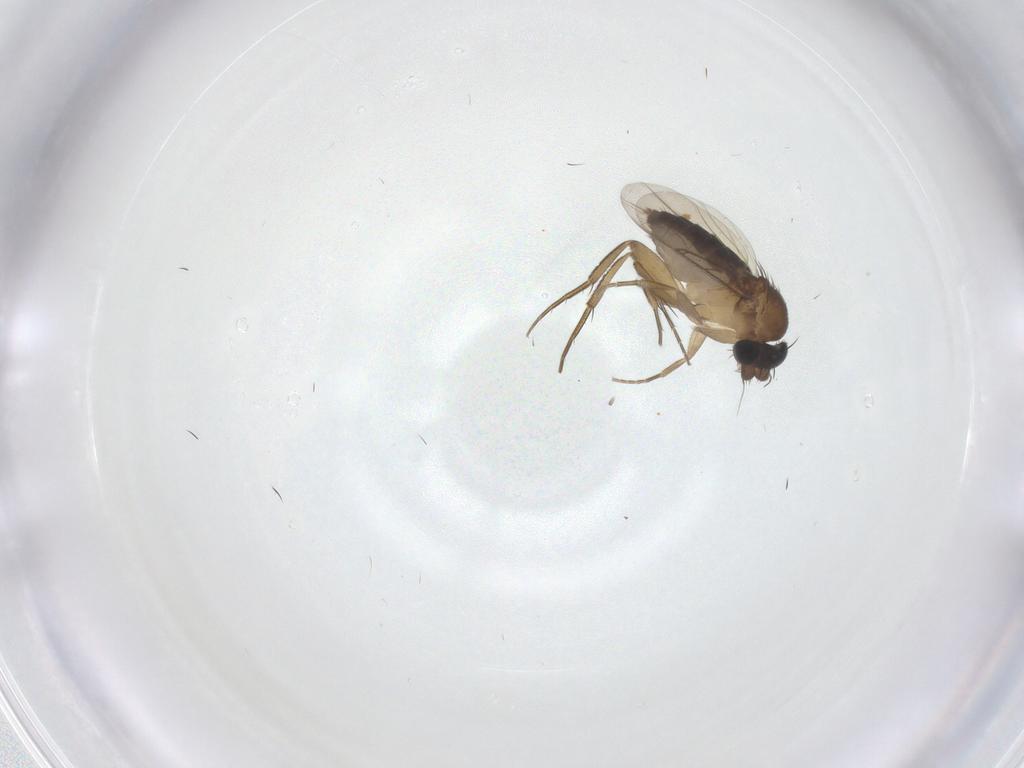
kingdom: Animalia
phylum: Arthropoda
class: Insecta
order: Diptera
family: Phoridae
